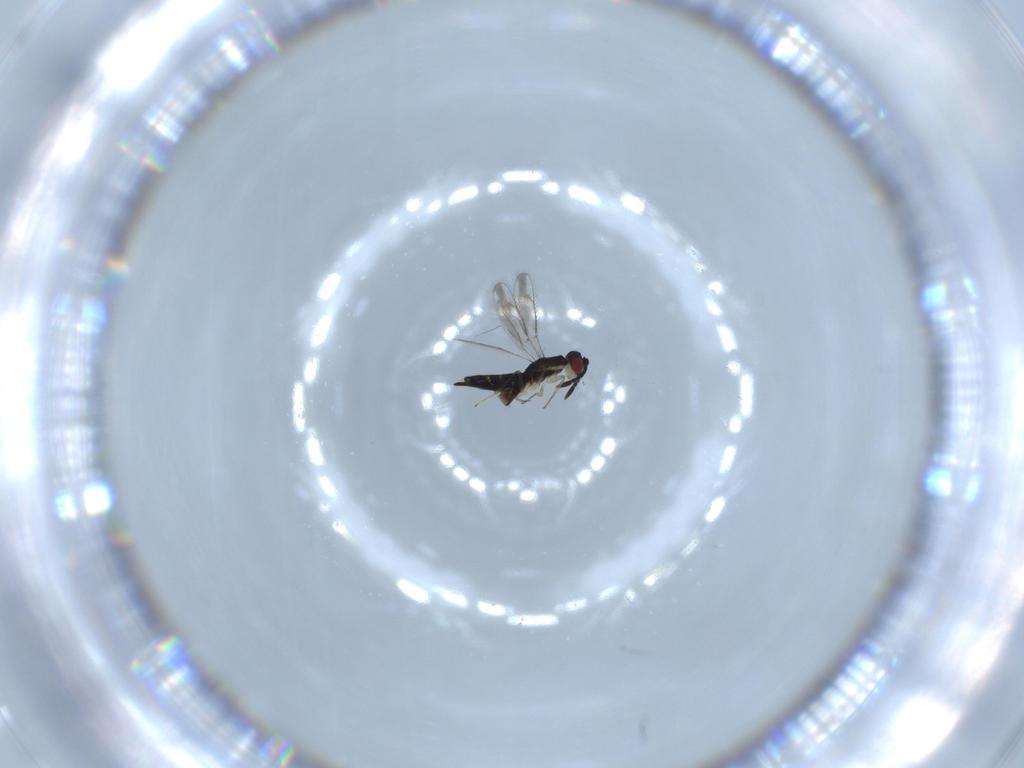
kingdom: Animalia
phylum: Arthropoda
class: Insecta
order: Hymenoptera
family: Pteromalidae
